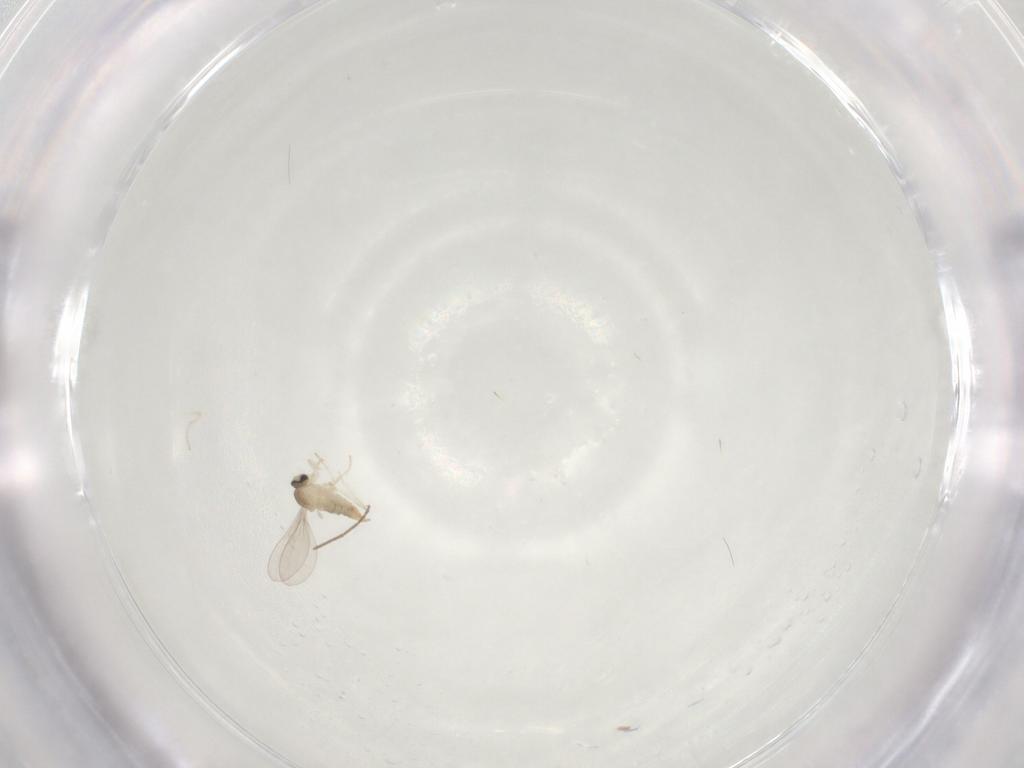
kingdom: Animalia
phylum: Arthropoda
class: Insecta
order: Diptera
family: Cecidomyiidae
